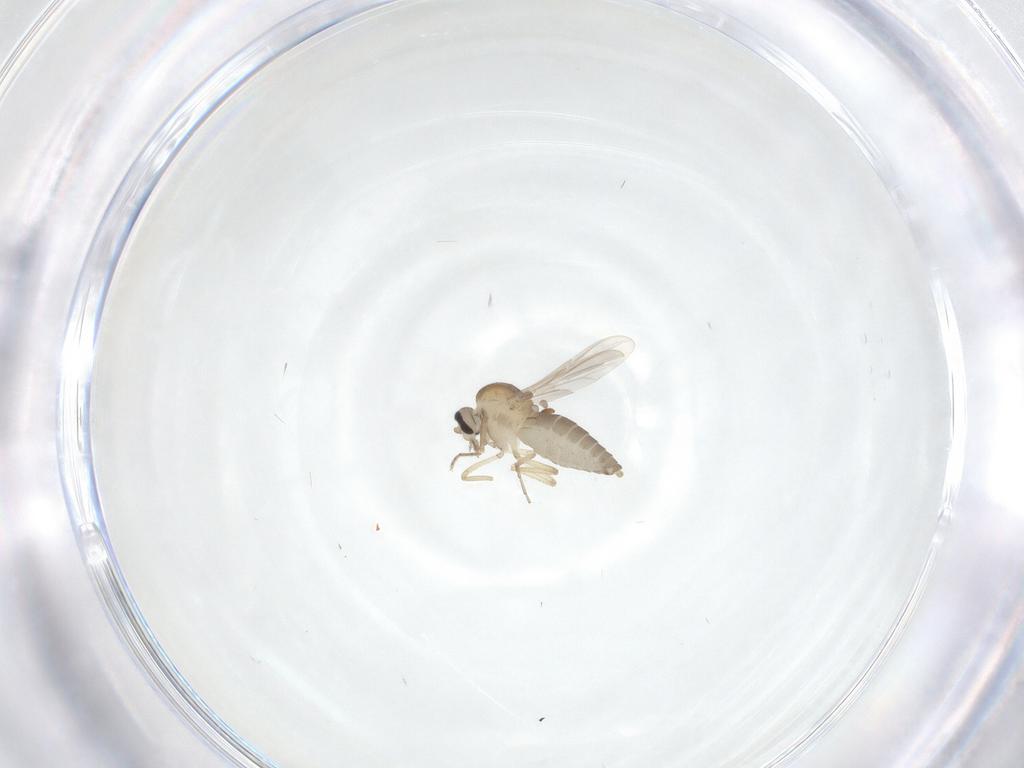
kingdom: Animalia
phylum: Arthropoda
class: Insecta
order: Diptera
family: Ceratopogonidae
